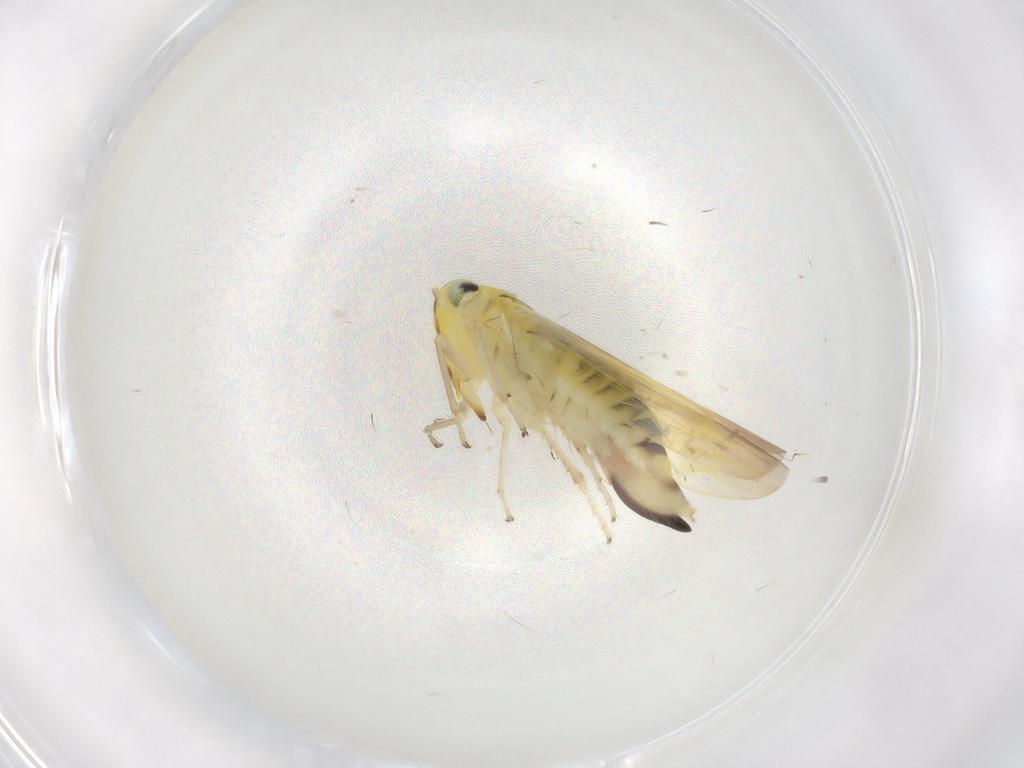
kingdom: Animalia
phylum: Arthropoda
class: Insecta
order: Hemiptera
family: Cicadellidae
